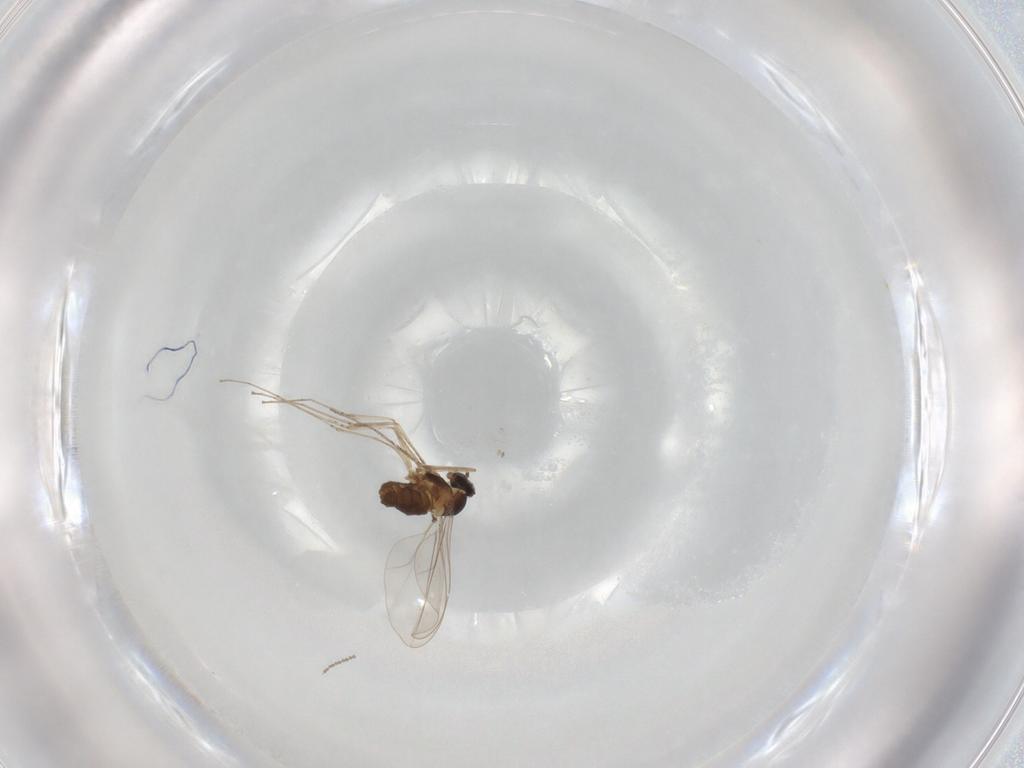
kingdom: Animalia
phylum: Arthropoda
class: Insecta
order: Diptera
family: Cecidomyiidae
